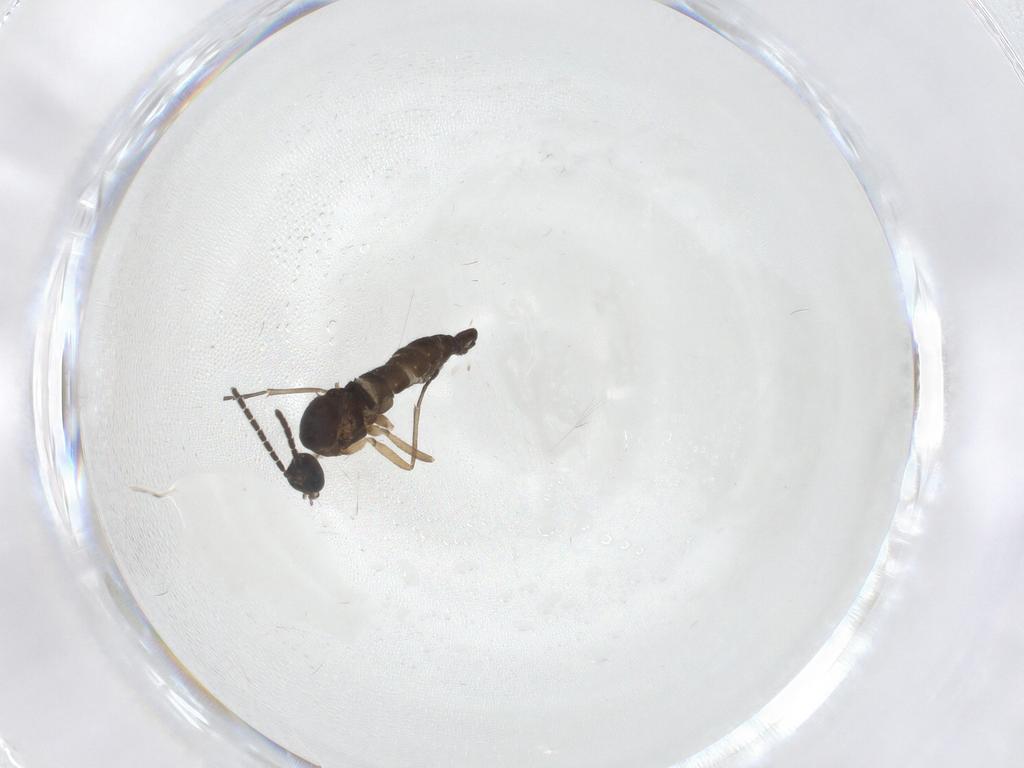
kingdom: Animalia
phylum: Arthropoda
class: Insecta
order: Diptera
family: Sciaridae
